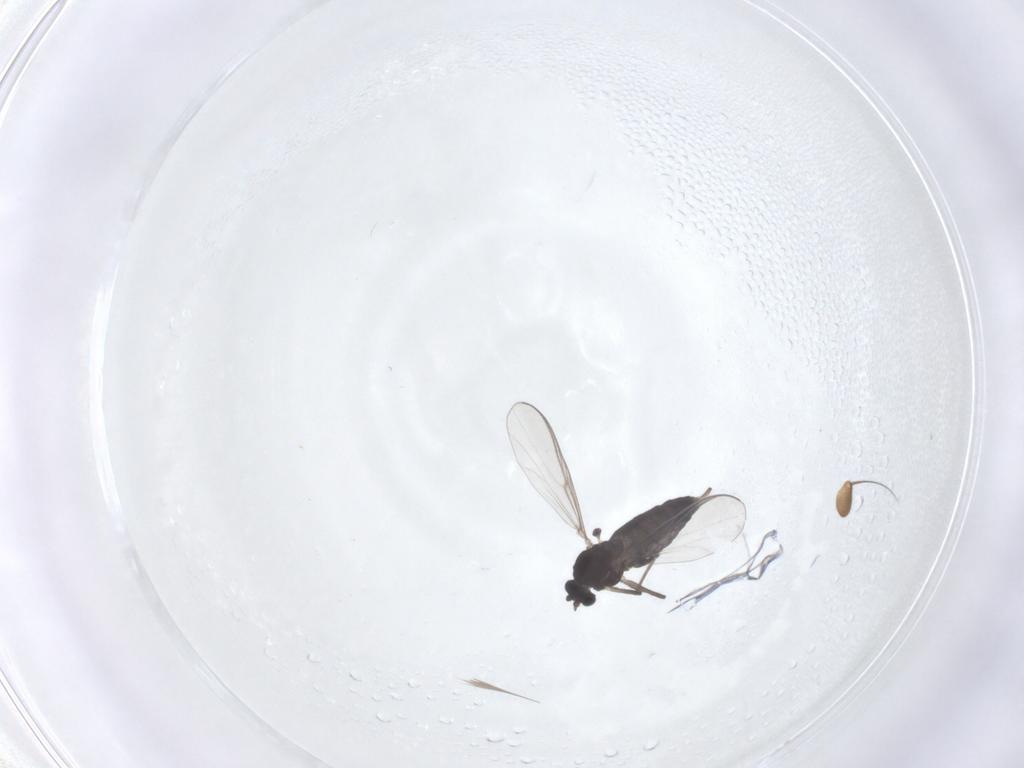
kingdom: Animalia
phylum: Arthropoda
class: Insecta
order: Diptera
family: Chironomidae
